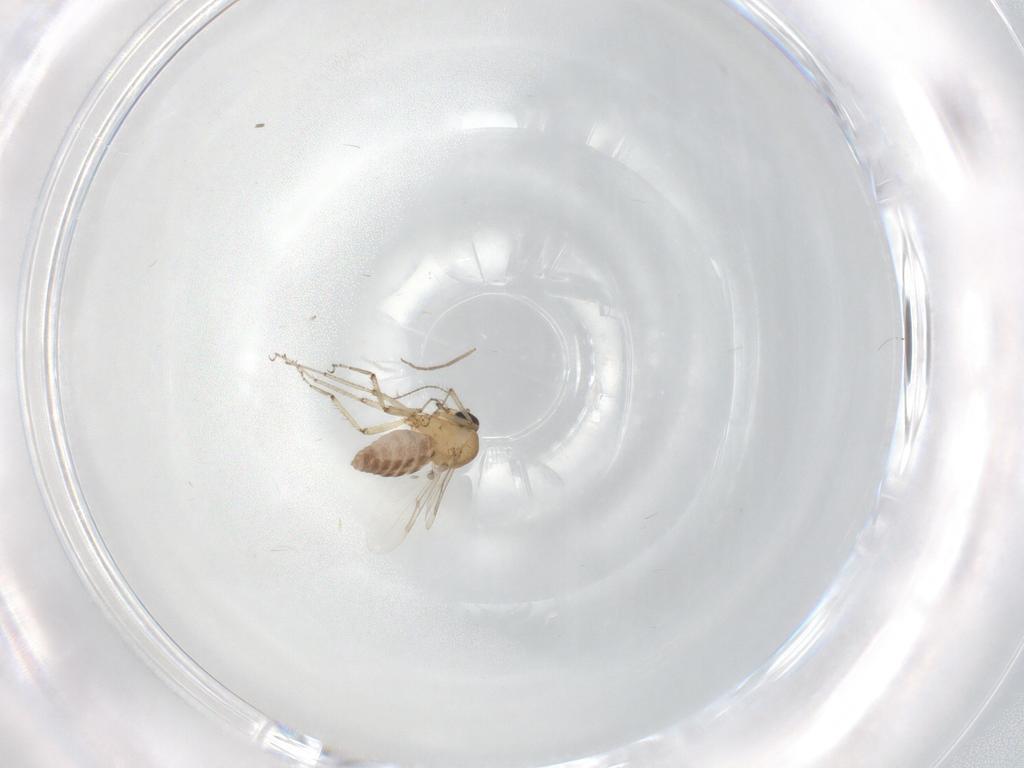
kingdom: Animalia
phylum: Arthropoda
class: Insecta
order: Diptera
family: Ceratopogonidae
